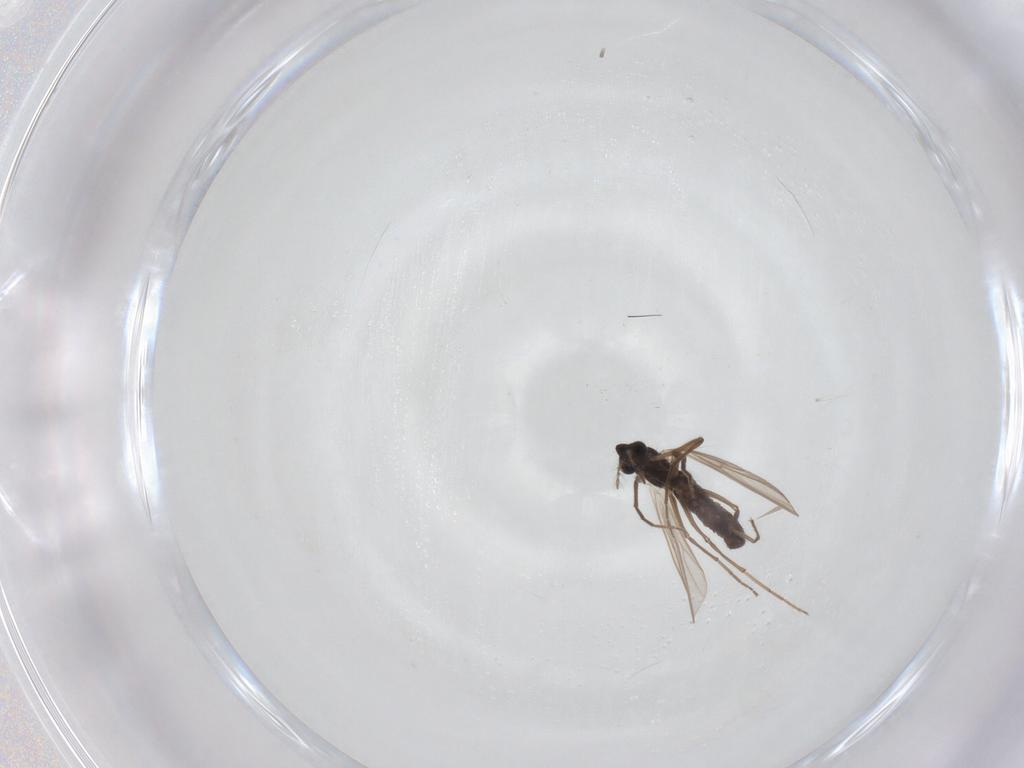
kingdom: Animalia
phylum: Arthropoda
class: Insecta
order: Diptera
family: Chironomidae
